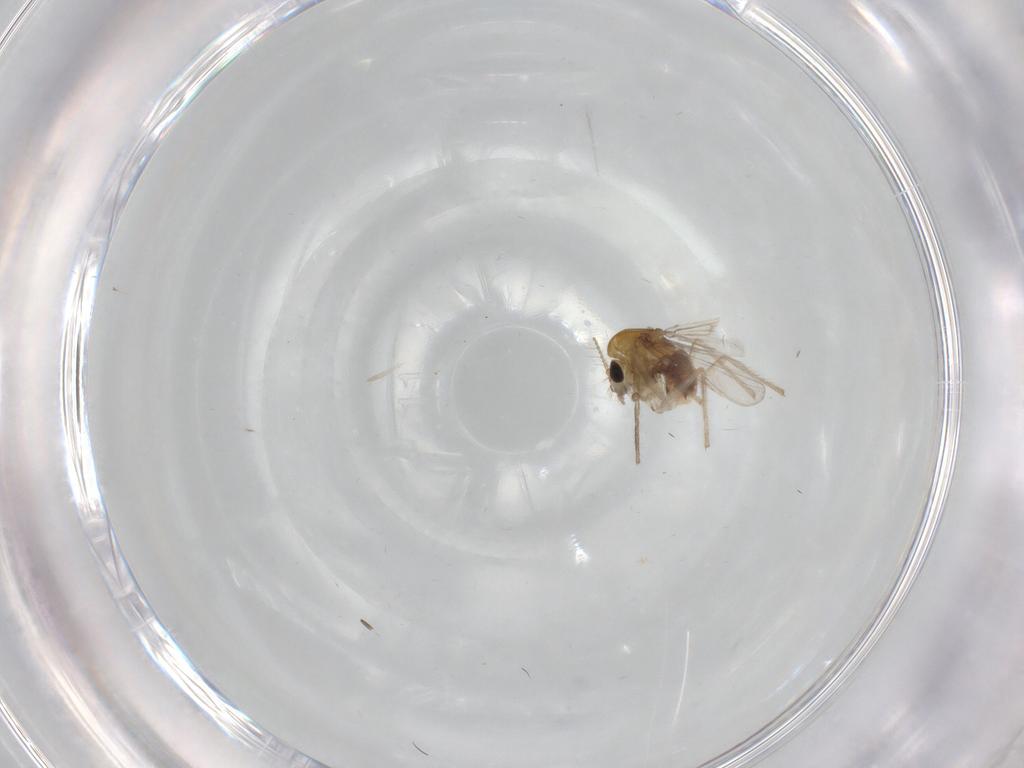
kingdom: Animalia
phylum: Arthropoda
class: Insecta
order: Diptera
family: Chironomidae
